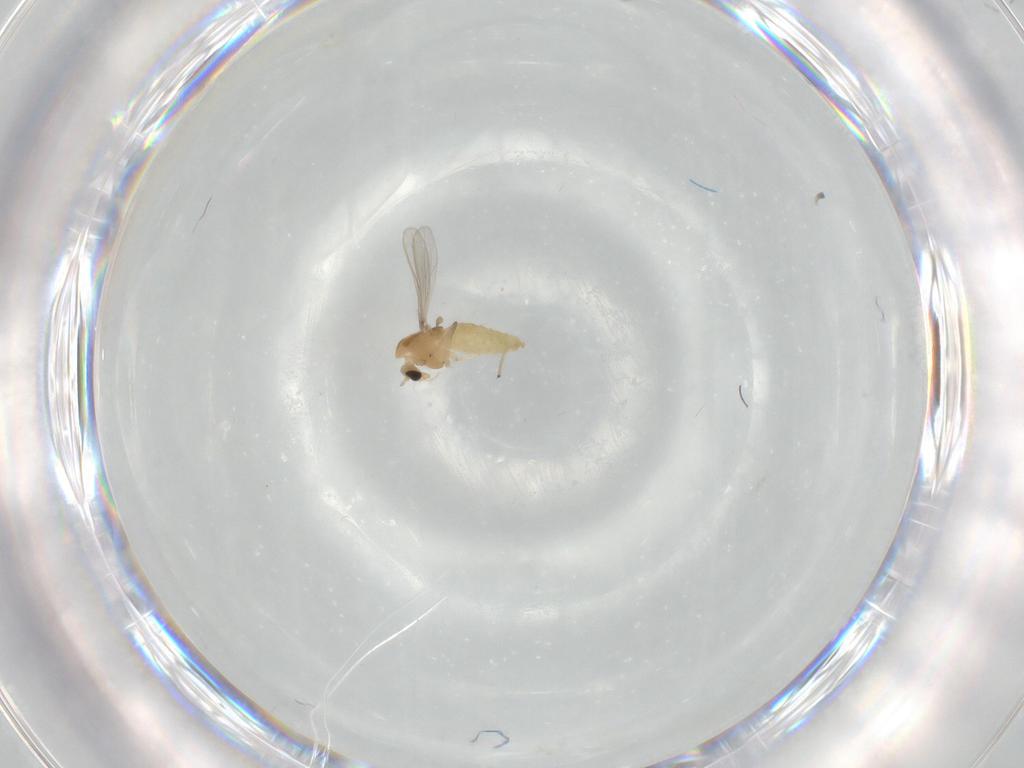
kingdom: Animalia
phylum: Arthropoda
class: Insecta
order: Diptera
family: Chironomidae
